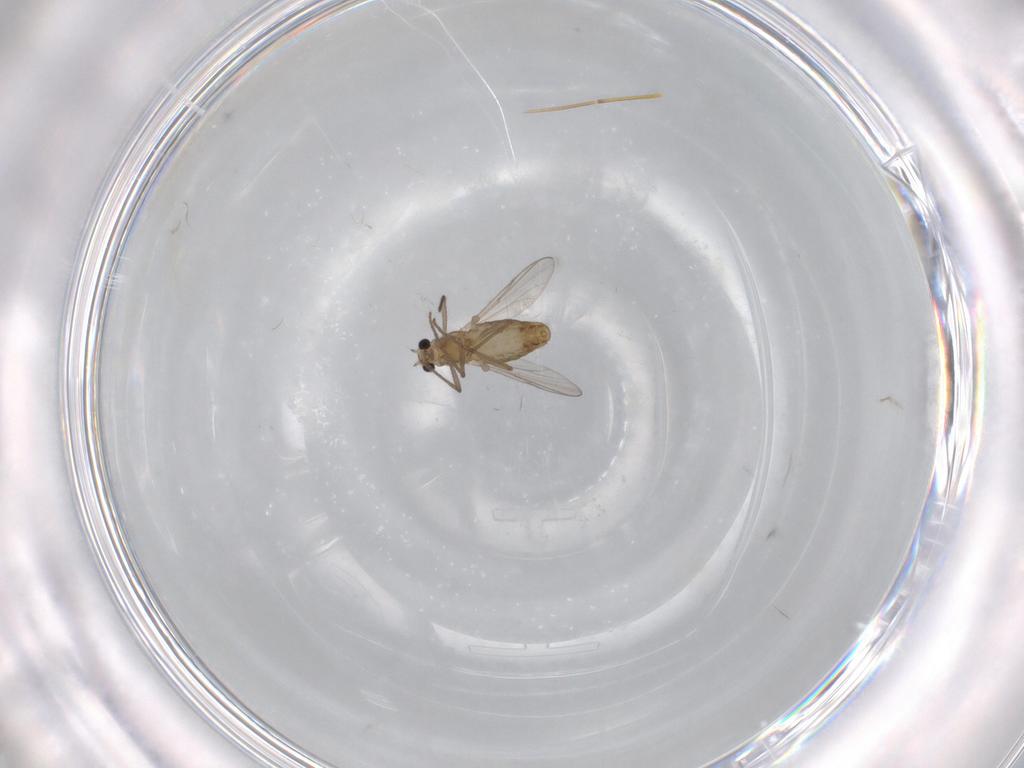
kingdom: Animalia
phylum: Arthropoda
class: Insecta
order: Diptera
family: Chironomidae
